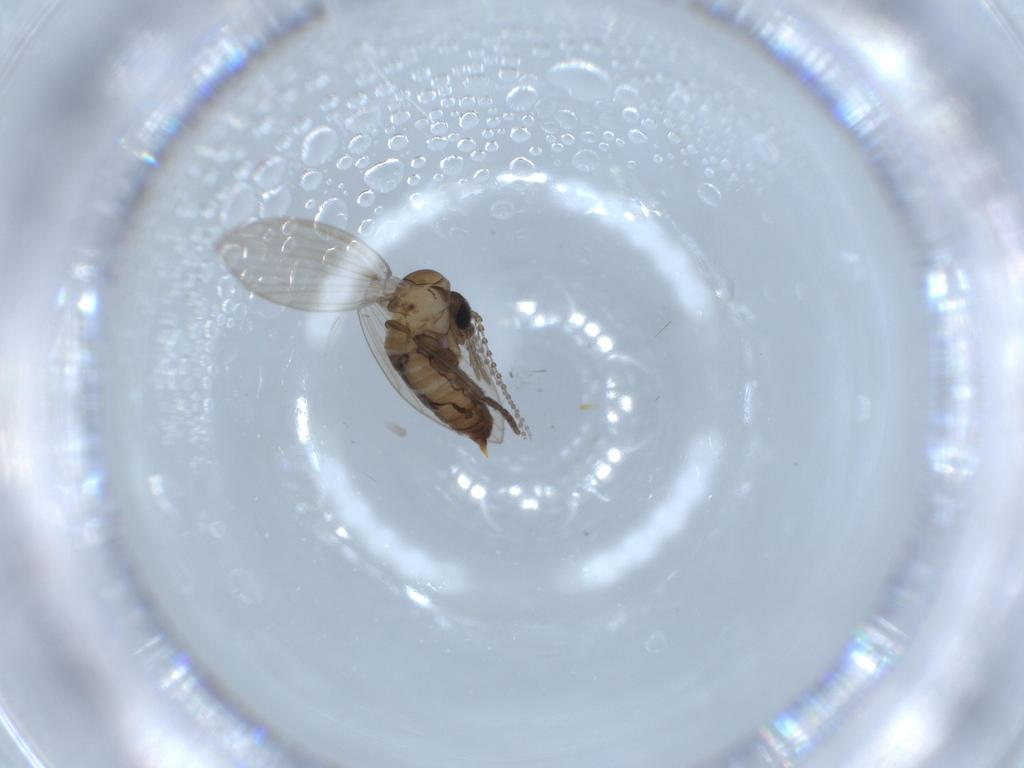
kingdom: Animalia
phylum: Arthropoda
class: Insecta
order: Diptera
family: Psychodidae
